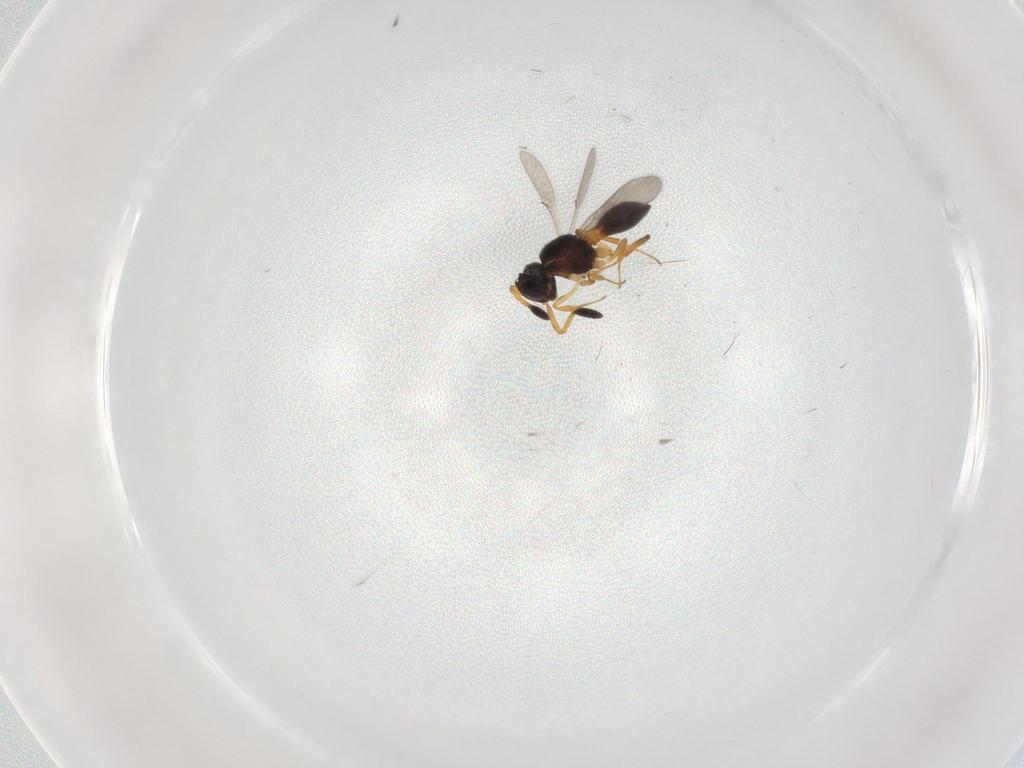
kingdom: Animalia
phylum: Arthropoda
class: Insecta
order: Hymenoptera
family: Scelionidae
